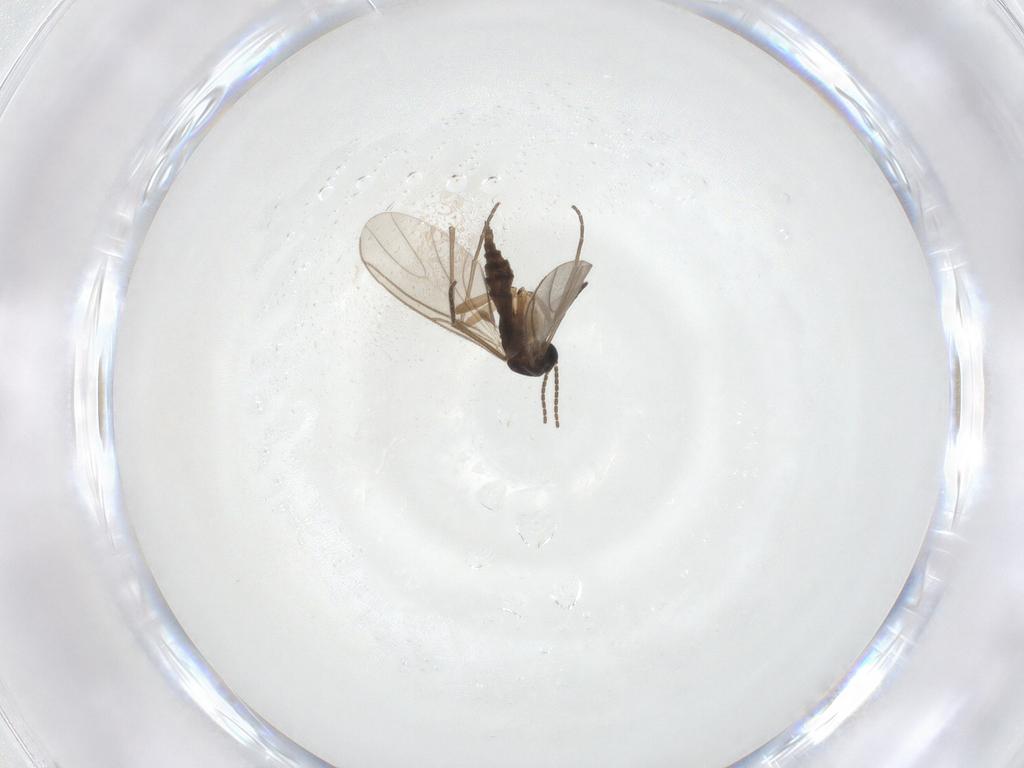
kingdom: Animalia
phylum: Arthropoda
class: Insecta
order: Diptera
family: Sciaridae
